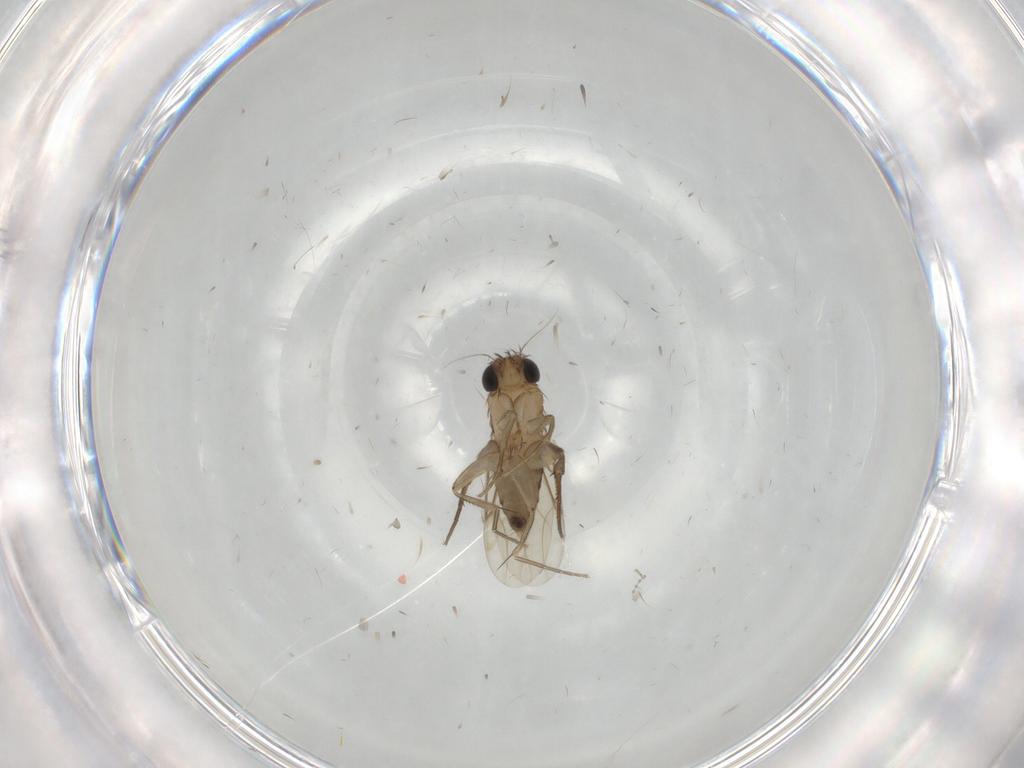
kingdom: Animalia
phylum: Arthropoda
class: Insecta
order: Diptera
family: Phoridae
